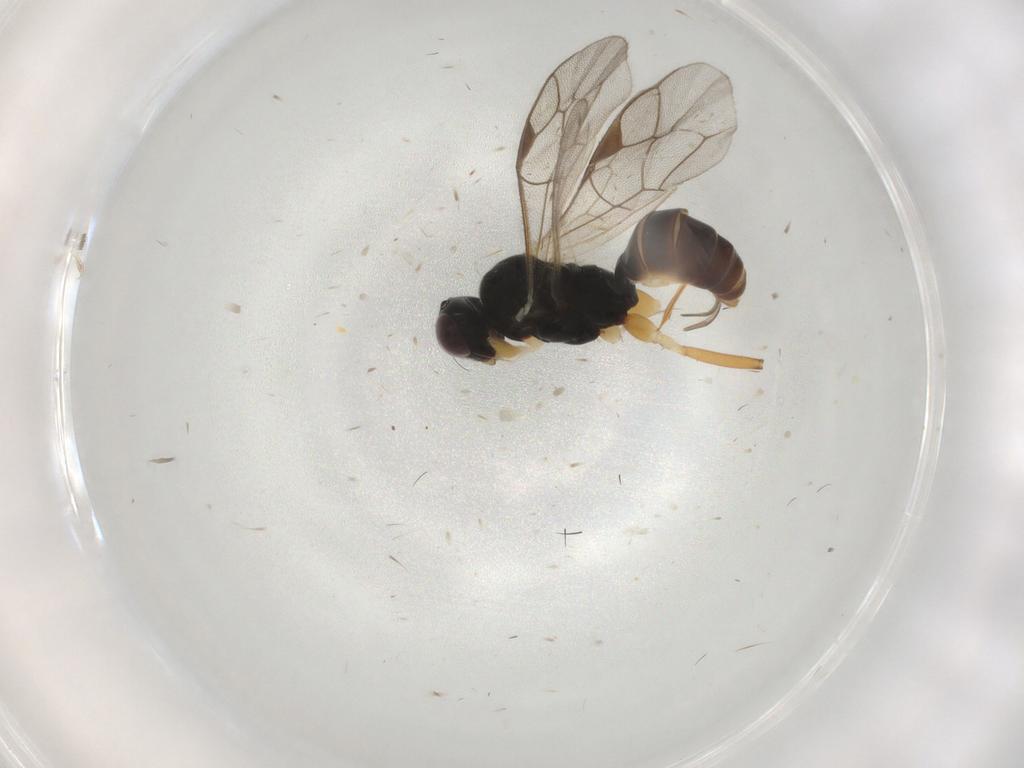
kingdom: Animalia
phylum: Arthropoda
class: Insecta
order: Hymenoptera
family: Ichneumonidae
